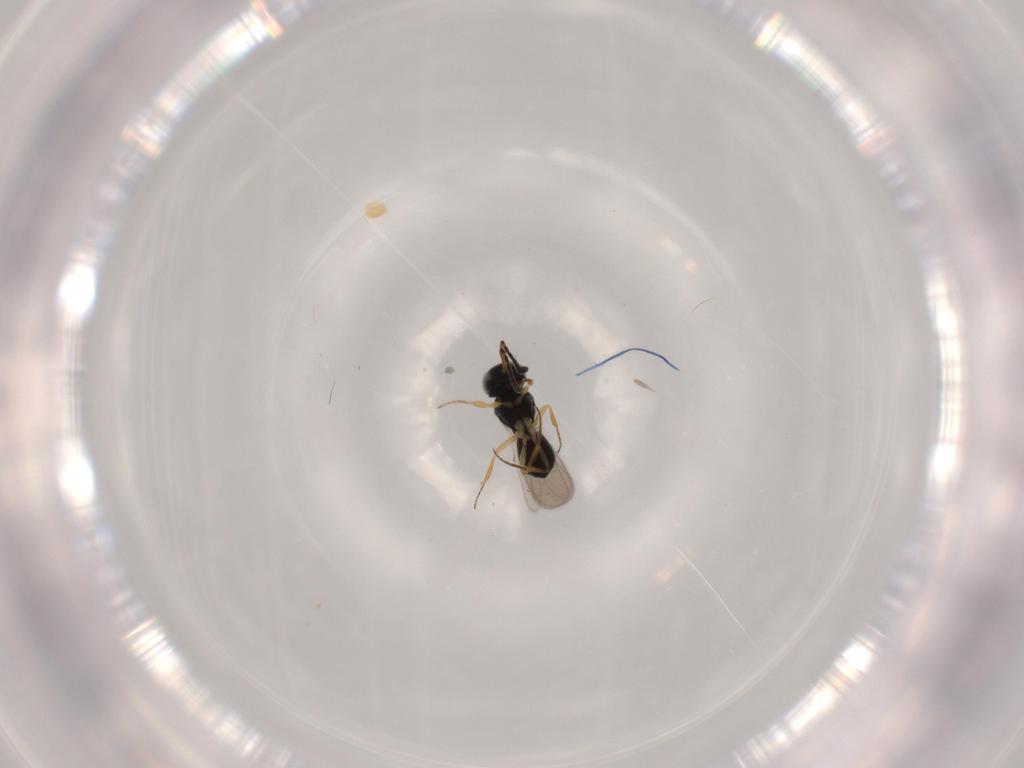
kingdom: Animalia
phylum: Arthropoda
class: Insecta
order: Hymenoptera
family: Scelionidae
